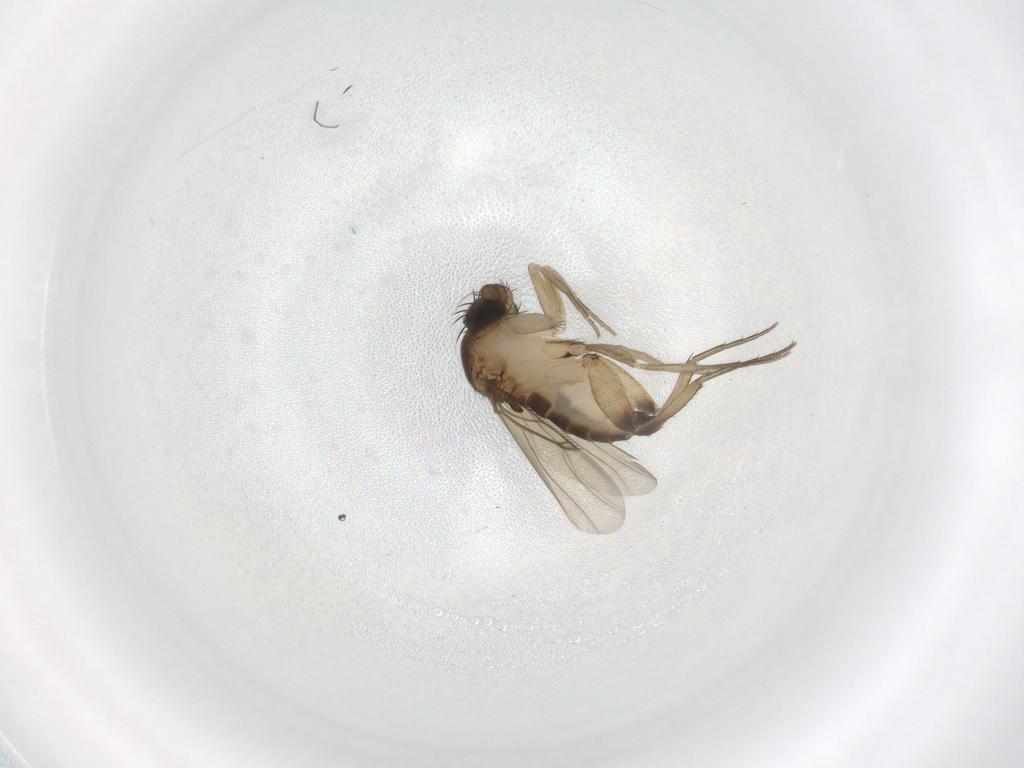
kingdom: Animalia
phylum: Arthropoda
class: Insecta
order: Diptera
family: Phoridae
